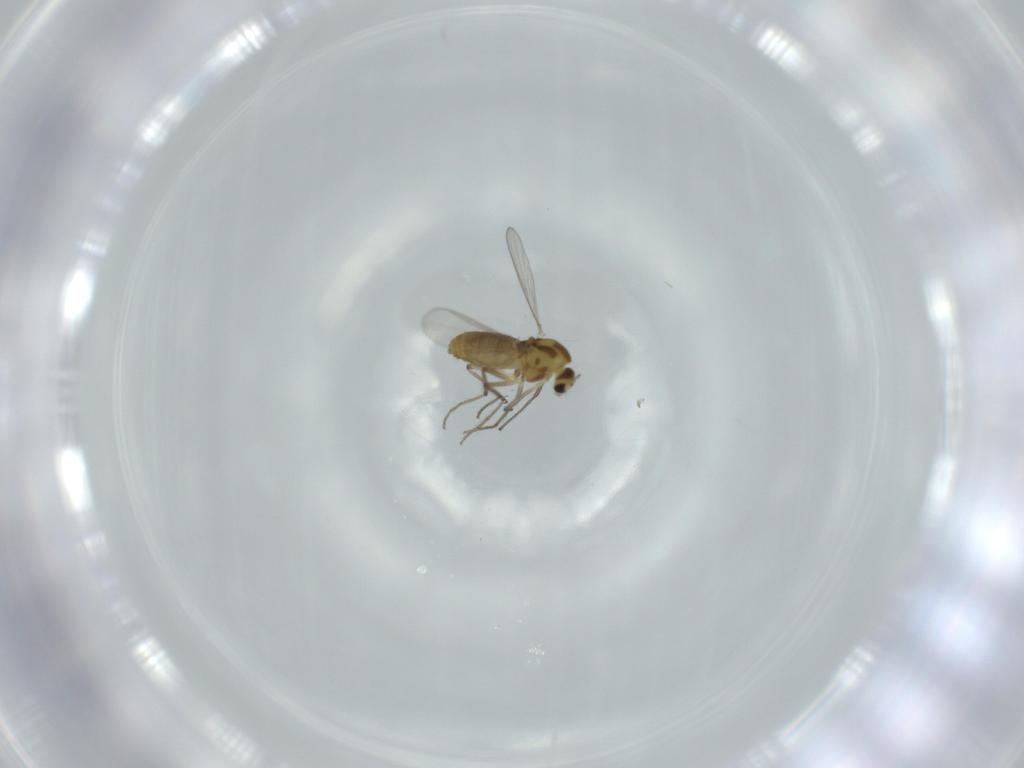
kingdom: Animalia
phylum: Arthropoda
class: Insecta
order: Diptera
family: Chironomidae
